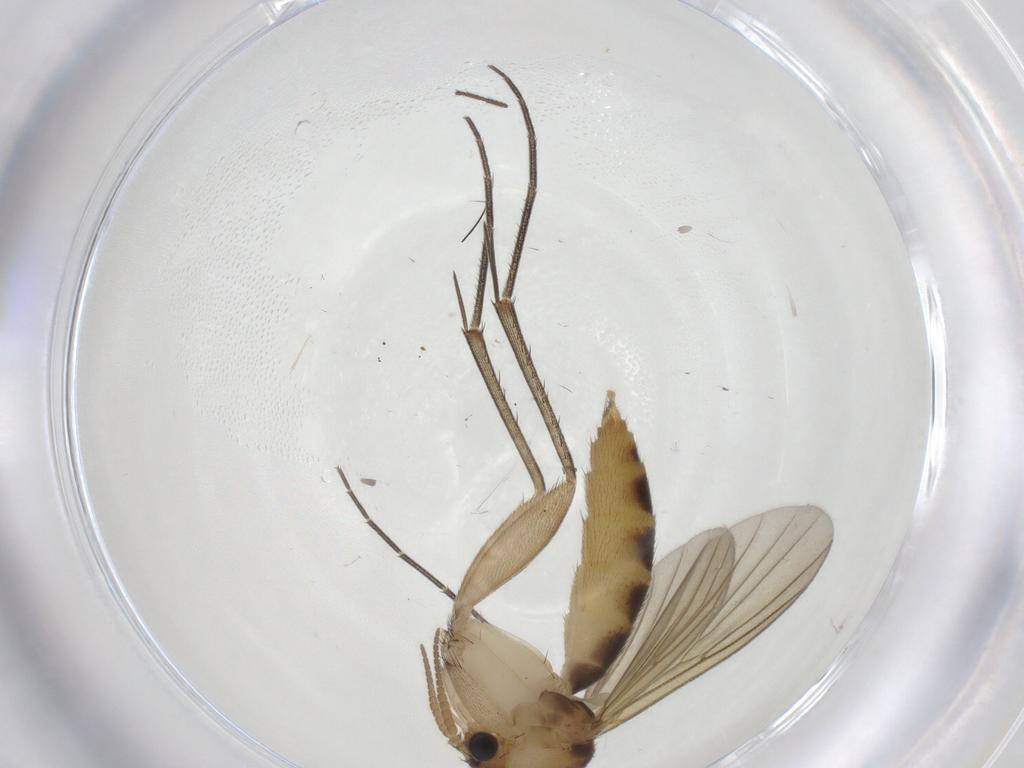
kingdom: Animalia
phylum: Arthropoda
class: Insecta
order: Diptera
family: Mycetophilidae
